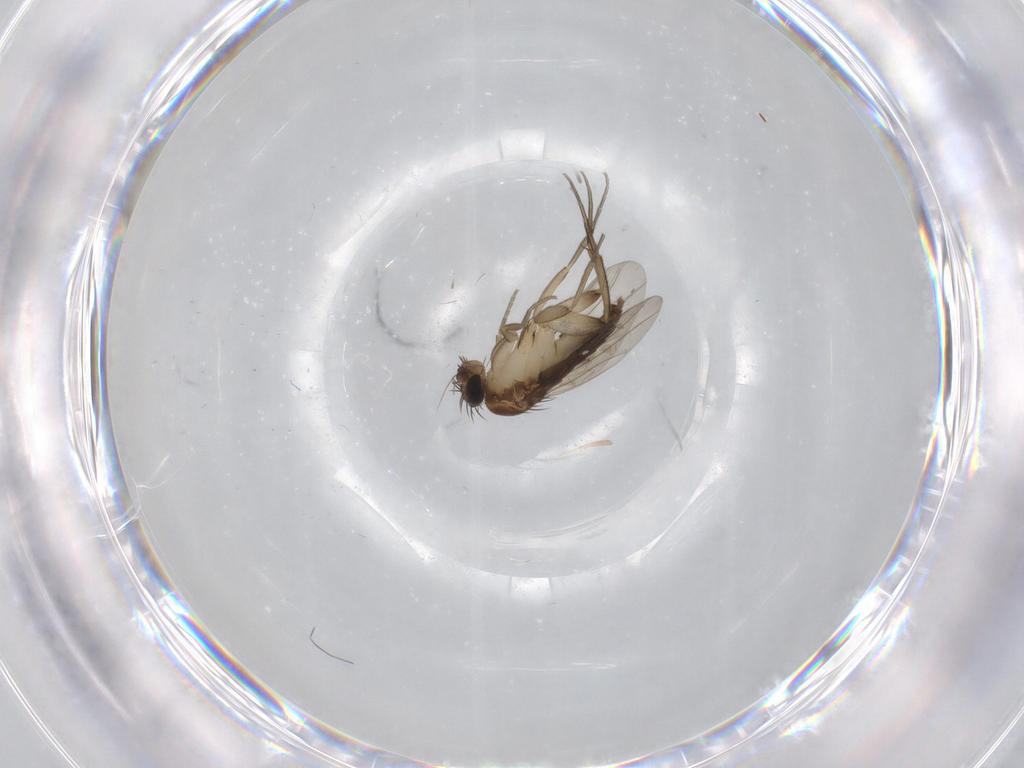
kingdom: Animalia
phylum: Arthropoda
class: Insecta
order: Diptera
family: Phoridae
